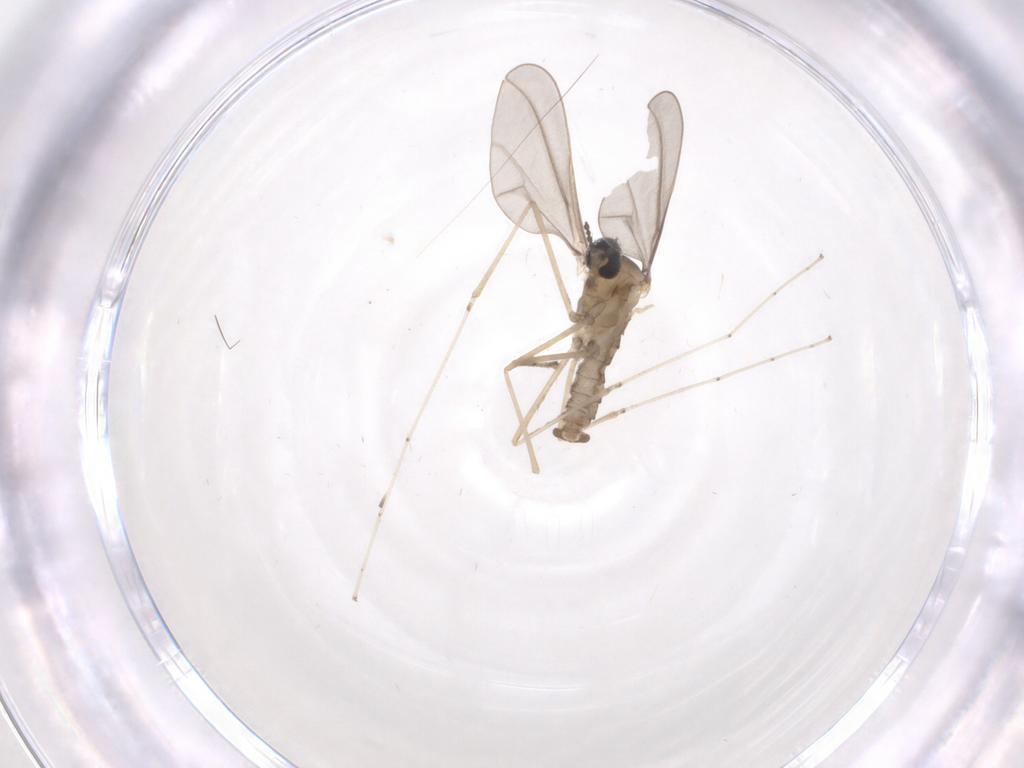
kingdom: Animalia
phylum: Arthropoda
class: Insecta
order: Diptera
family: Cecidomyiidae
